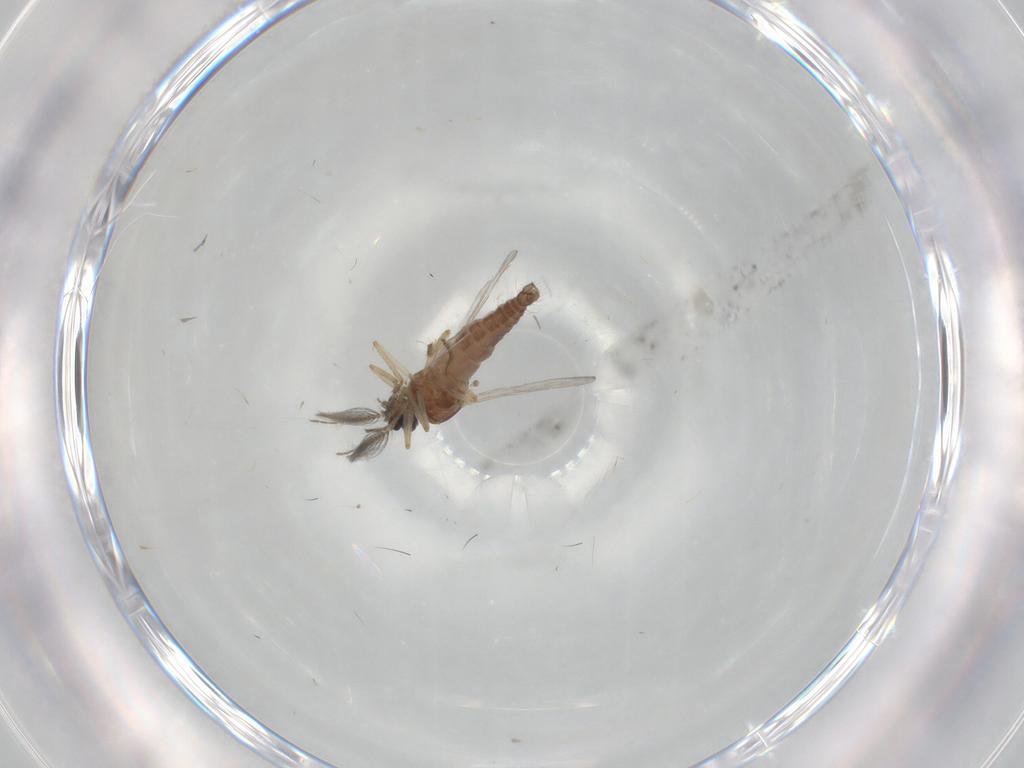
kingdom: Animalia
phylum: Arthropoda
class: Insecta
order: Diptera
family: Ceratopogonidae
